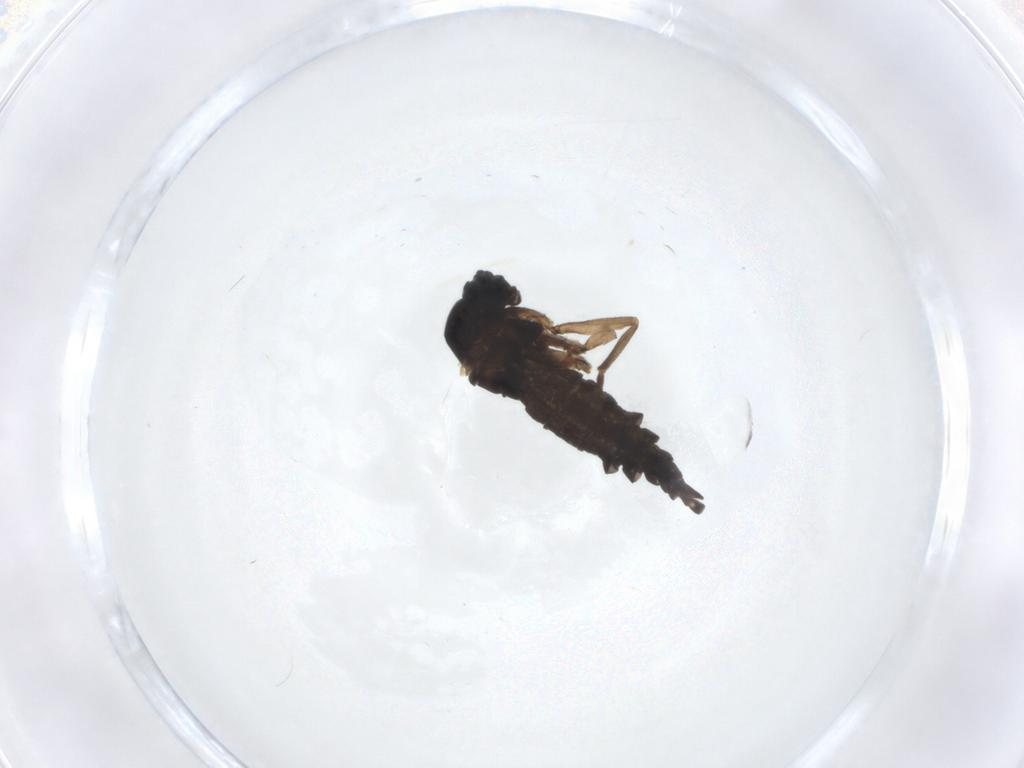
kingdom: Animalia
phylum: Arthropoda
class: Insecta
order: Diptera
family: Sciaridae
